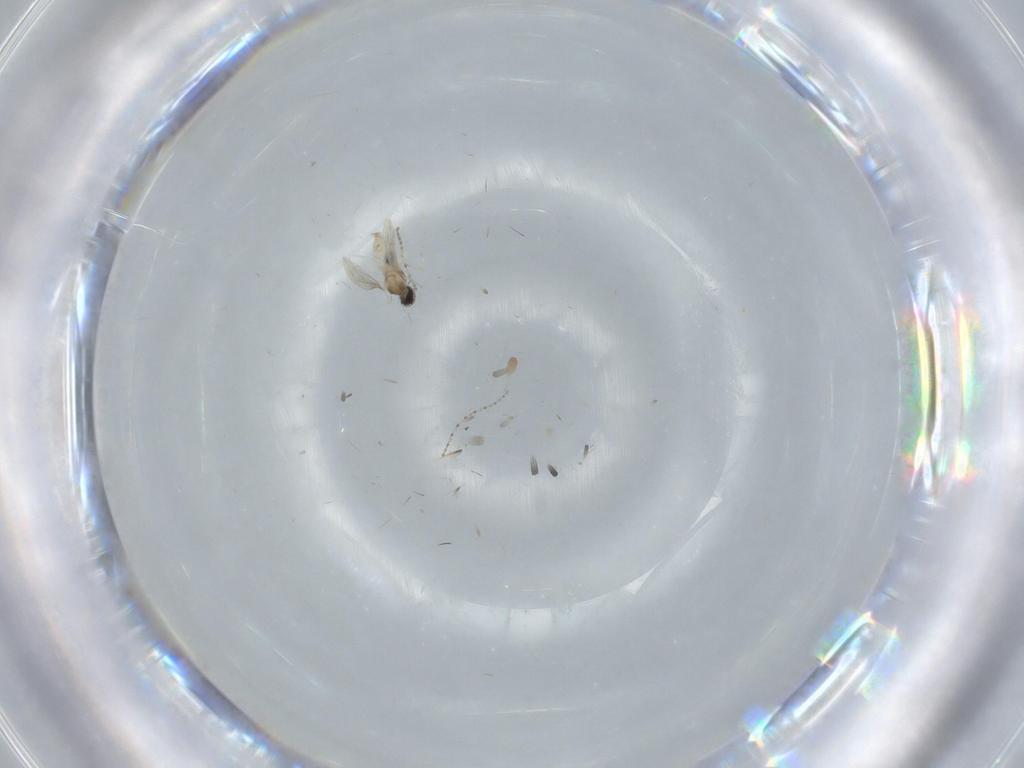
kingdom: Animalia
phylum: Arthropoda
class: Insecta
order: Diptera
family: Cecidomyiidae
